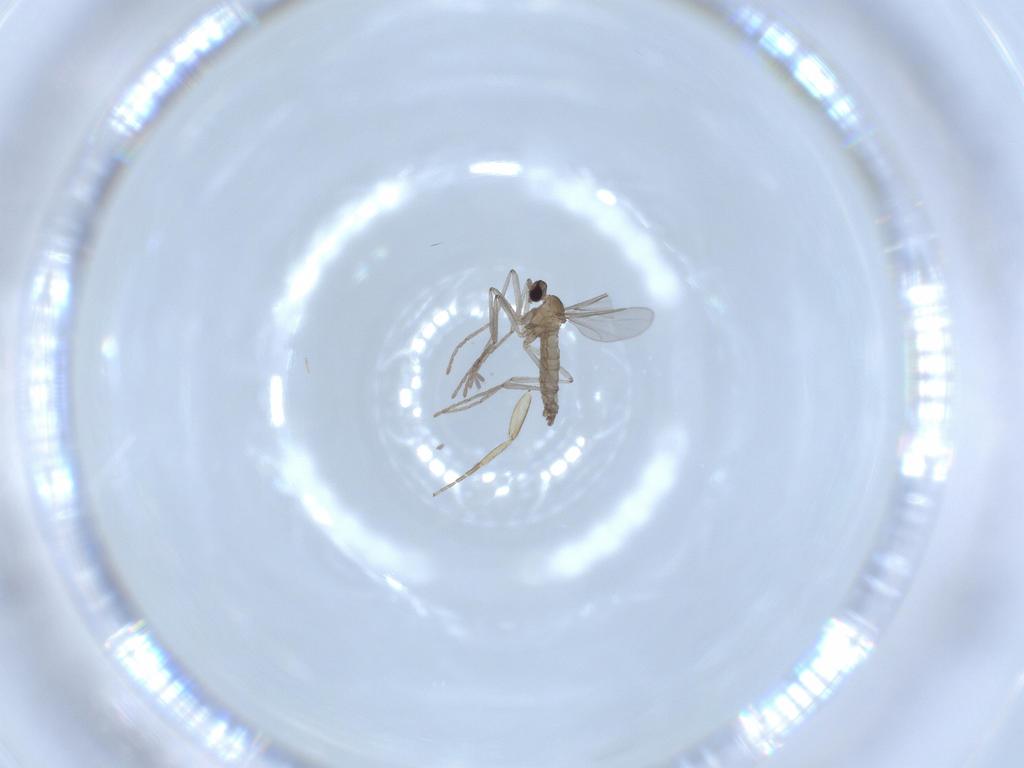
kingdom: Animalia
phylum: Arthropoda
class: Insecta
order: Diptera
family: Cecidomyiidae
